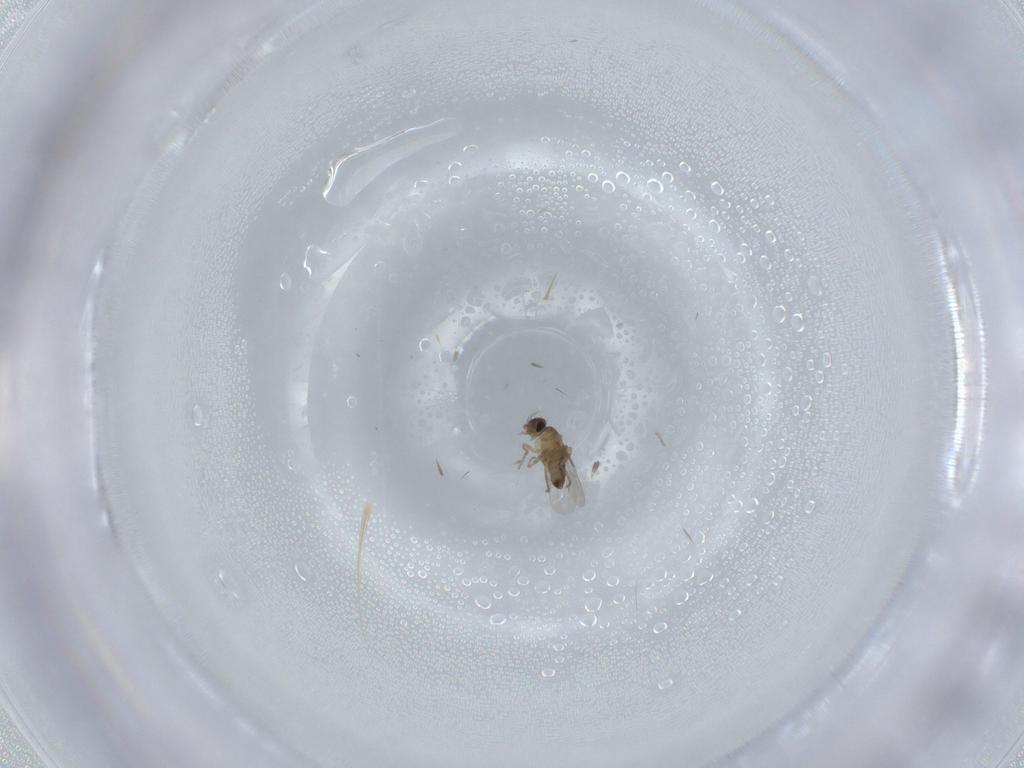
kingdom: Animalia
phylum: Arthropoda
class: Insecta
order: Diptera
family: Phoridae
